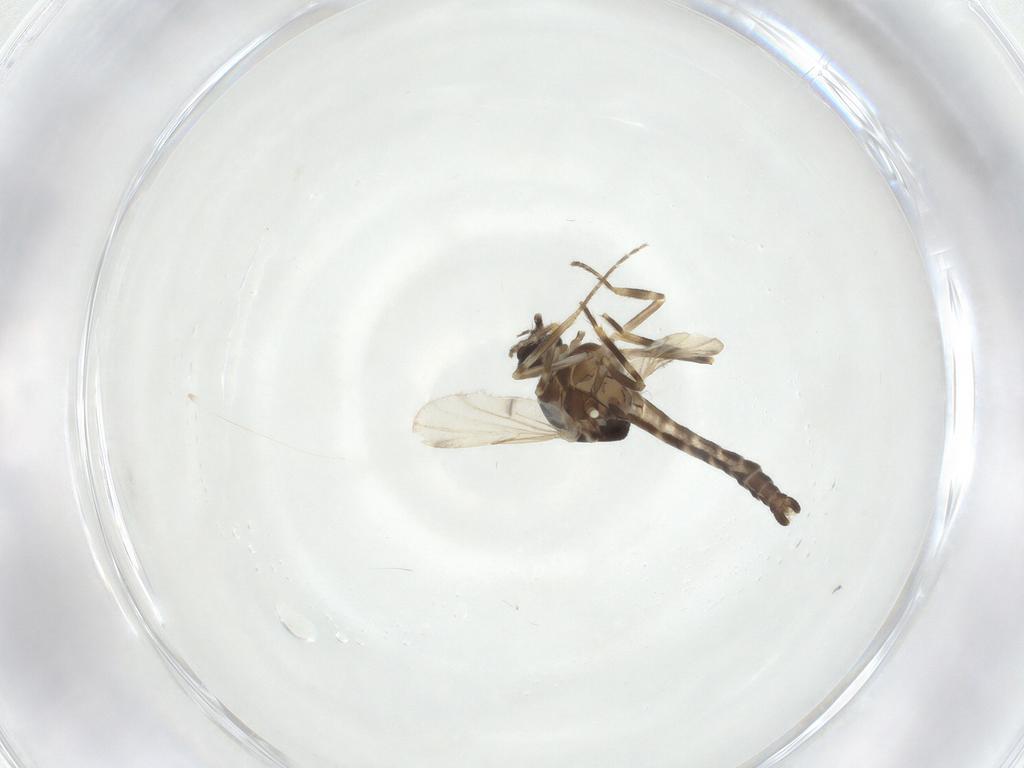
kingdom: Animalia
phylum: Arthropoda
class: Insecta
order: Diptera
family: Ceratopogonidae
